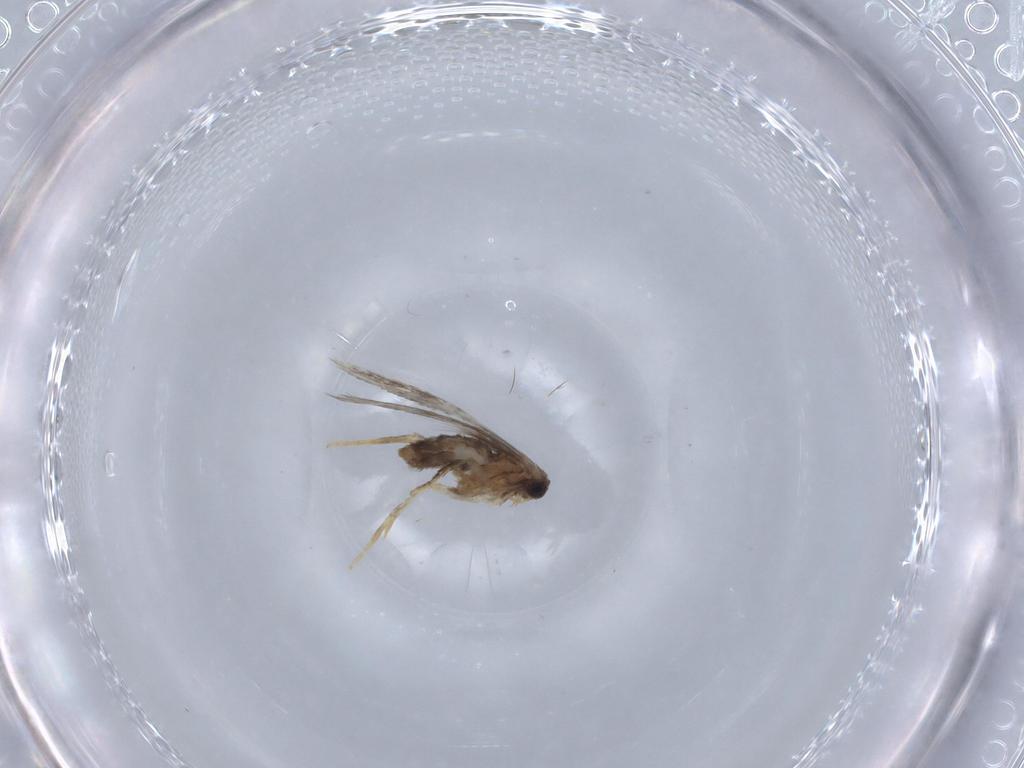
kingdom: Animalia
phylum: Arthropoda
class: Insecta
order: Lepidoptera
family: Nepticulidae
